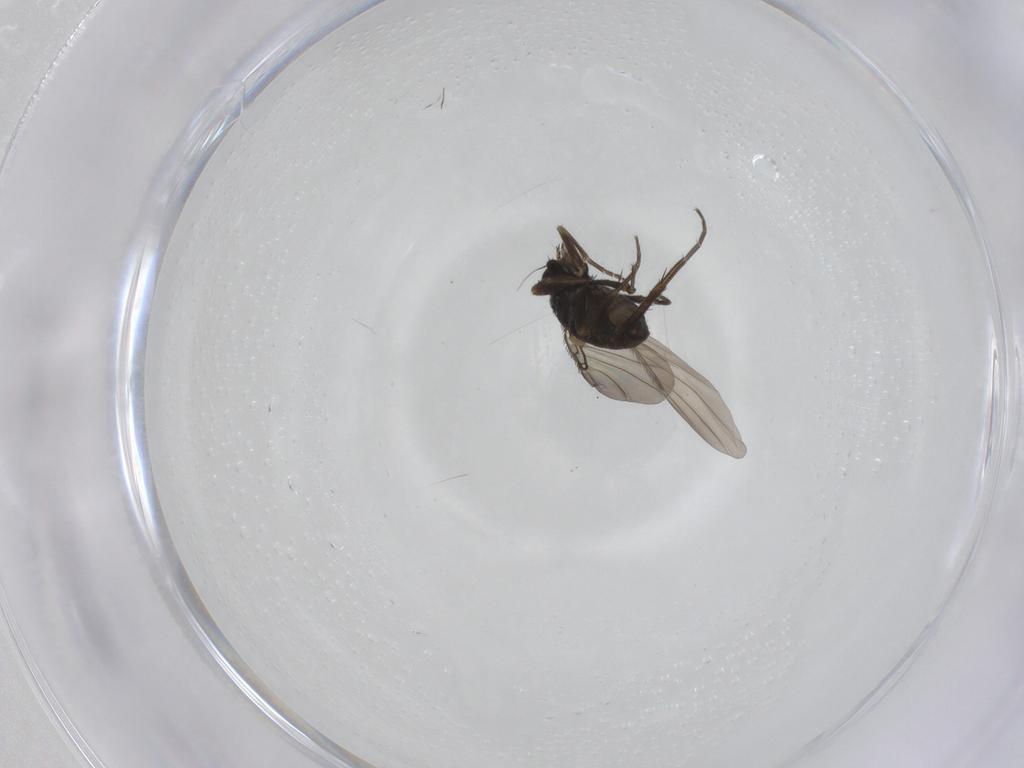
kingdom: Animalia
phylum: Arthropoda
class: Insecta
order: Diptera
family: Phoridae
